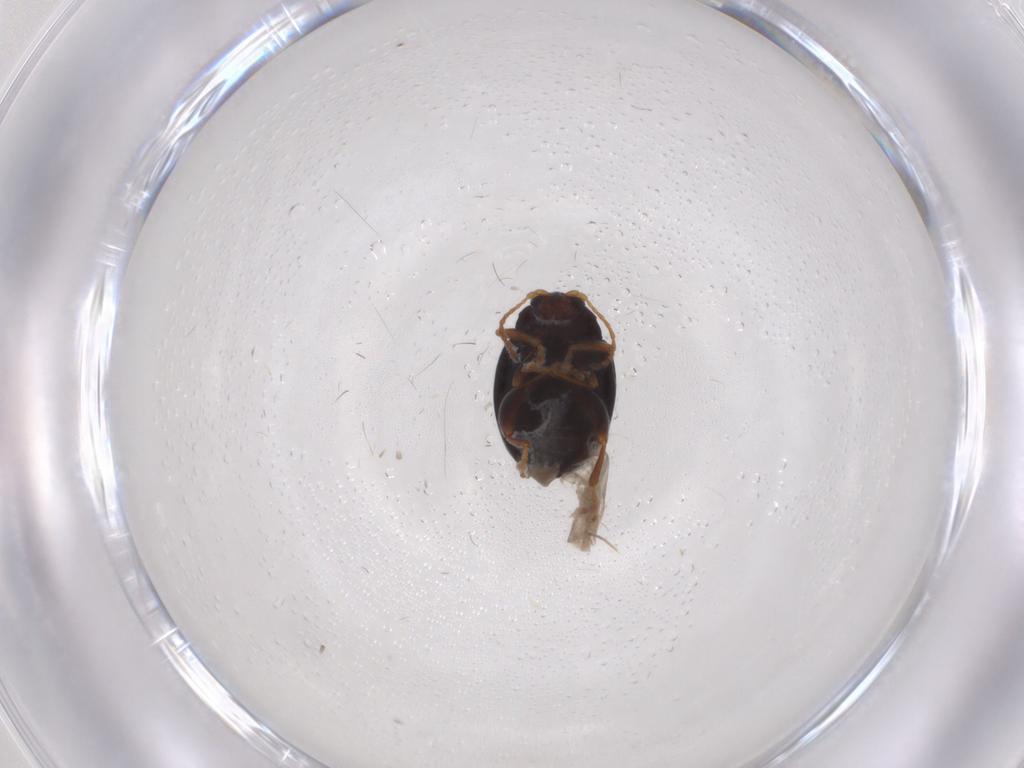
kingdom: Animalia
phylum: Arthropoda
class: Insecta
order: Coleoptera
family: Chrysomelidae
